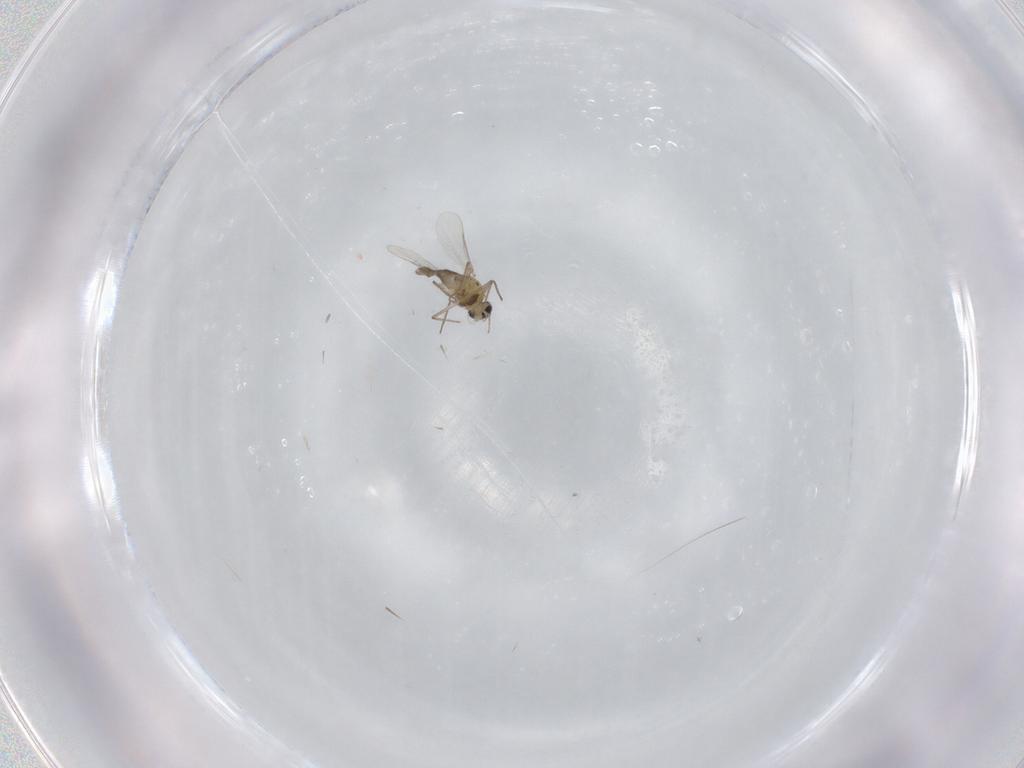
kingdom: Animalia
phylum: Arthropoda
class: Insecta
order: Diptera
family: Chironomidae
